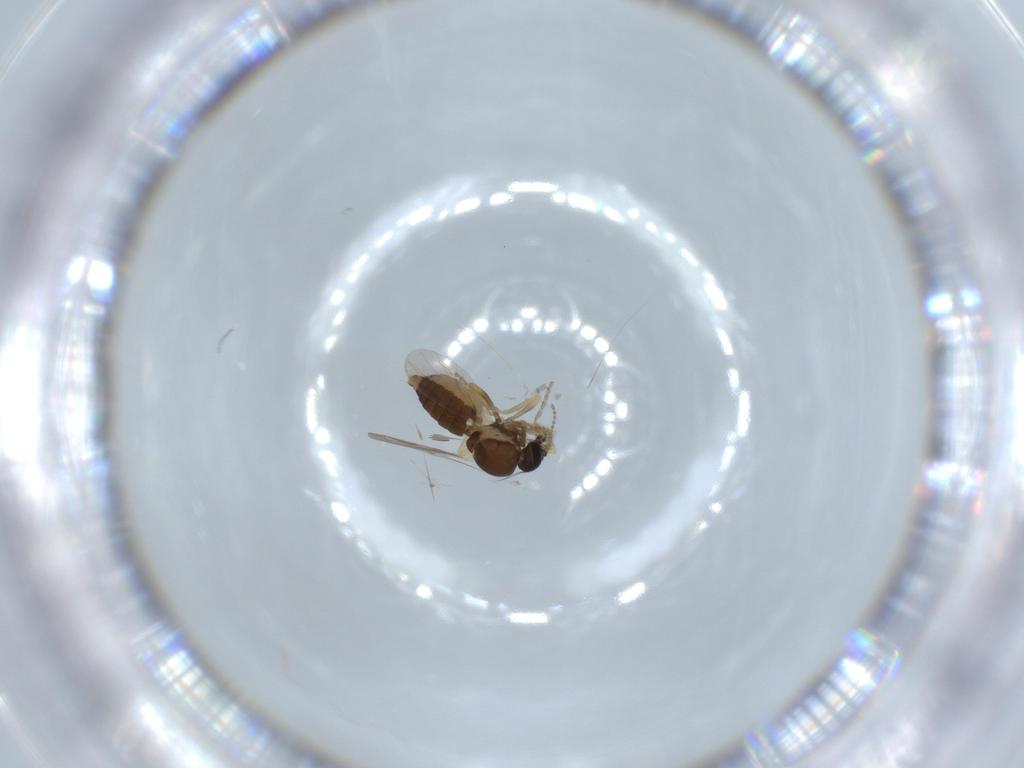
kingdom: Animalia
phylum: Arthropoda
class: Insecta
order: Diptera
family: Ceratopogonidae
